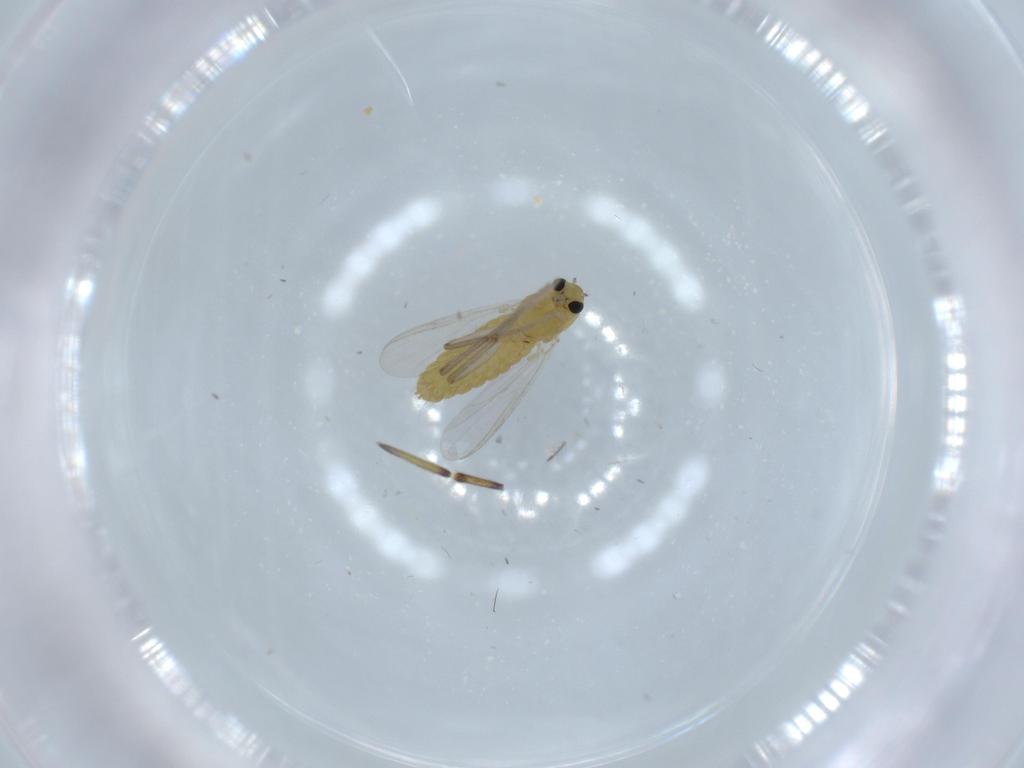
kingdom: Animalia
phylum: Arthropoda
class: Insecta
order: Diptera
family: Chironomidae
